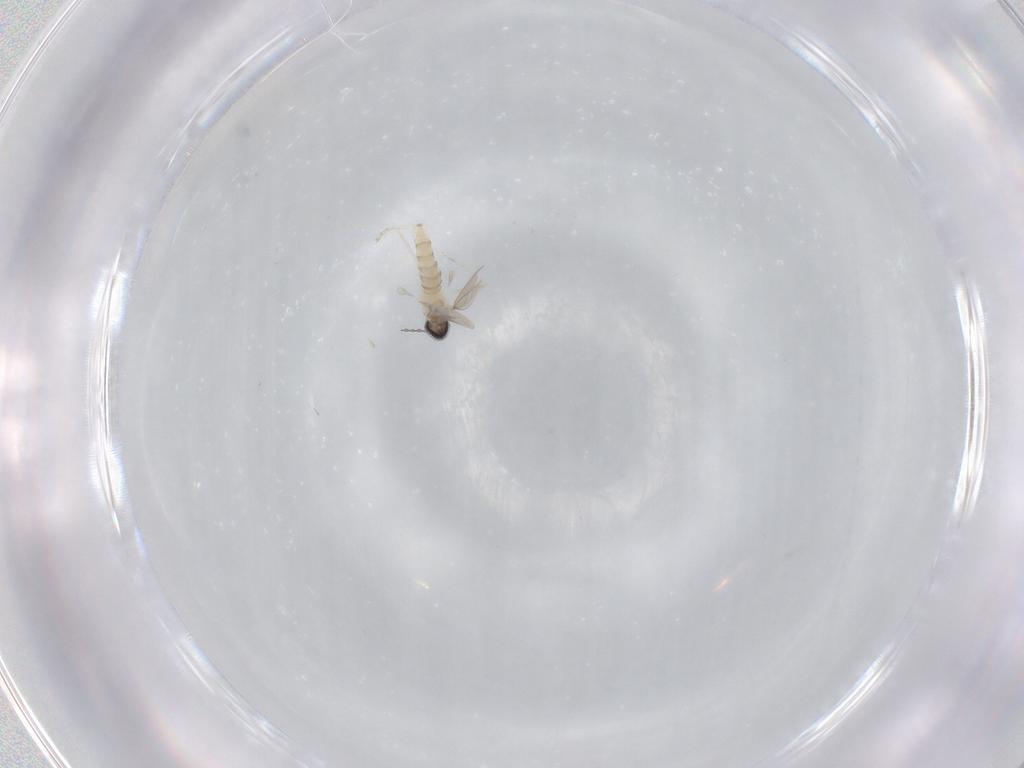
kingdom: Animalia
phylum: Arthropoda
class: Insecta
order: Diptera
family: Cecidomyiidae
